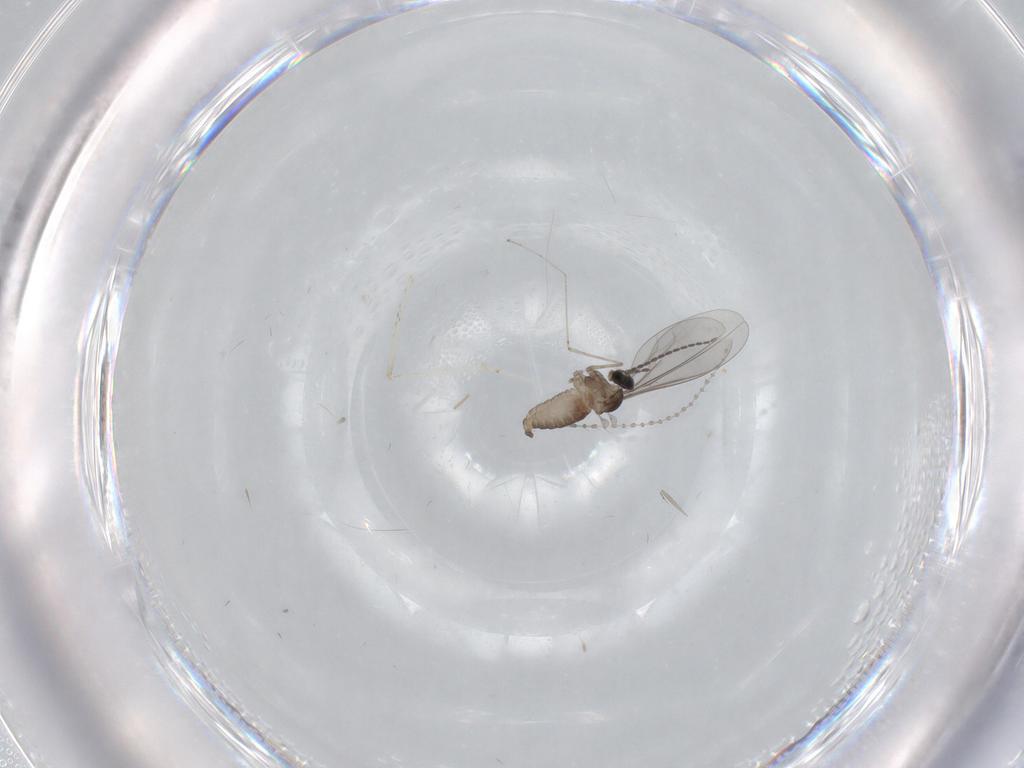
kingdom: Animalia
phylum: Arthropoda
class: Insecta
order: Diptera
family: Cecidomyiidae
